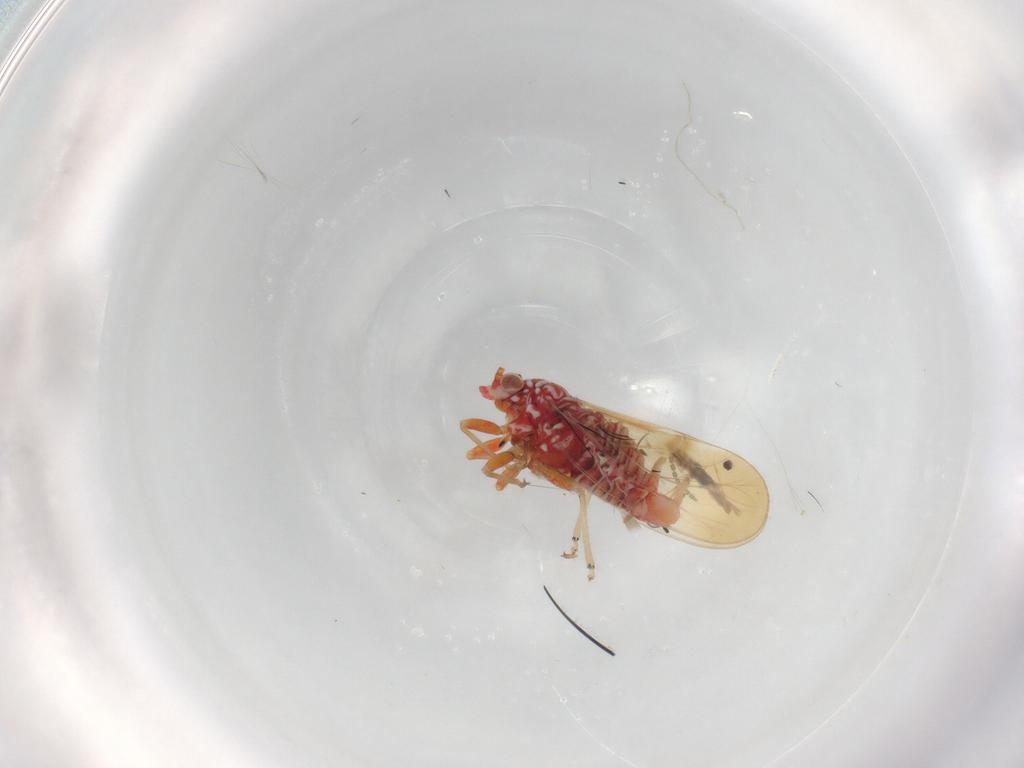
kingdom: Animalia
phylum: Arthropoda
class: Insecta
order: Hemiptera
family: Psyllidae
